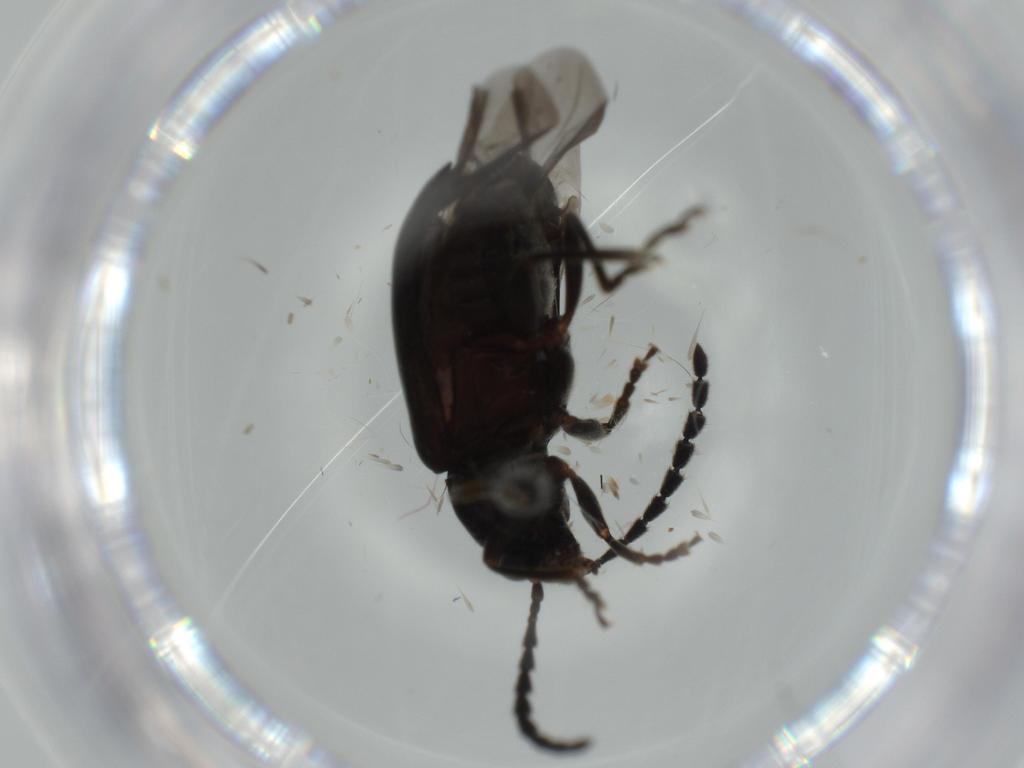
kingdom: Animalia
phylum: Arthropoda
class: Insecta
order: Coleoptera
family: Chrysomelidae
